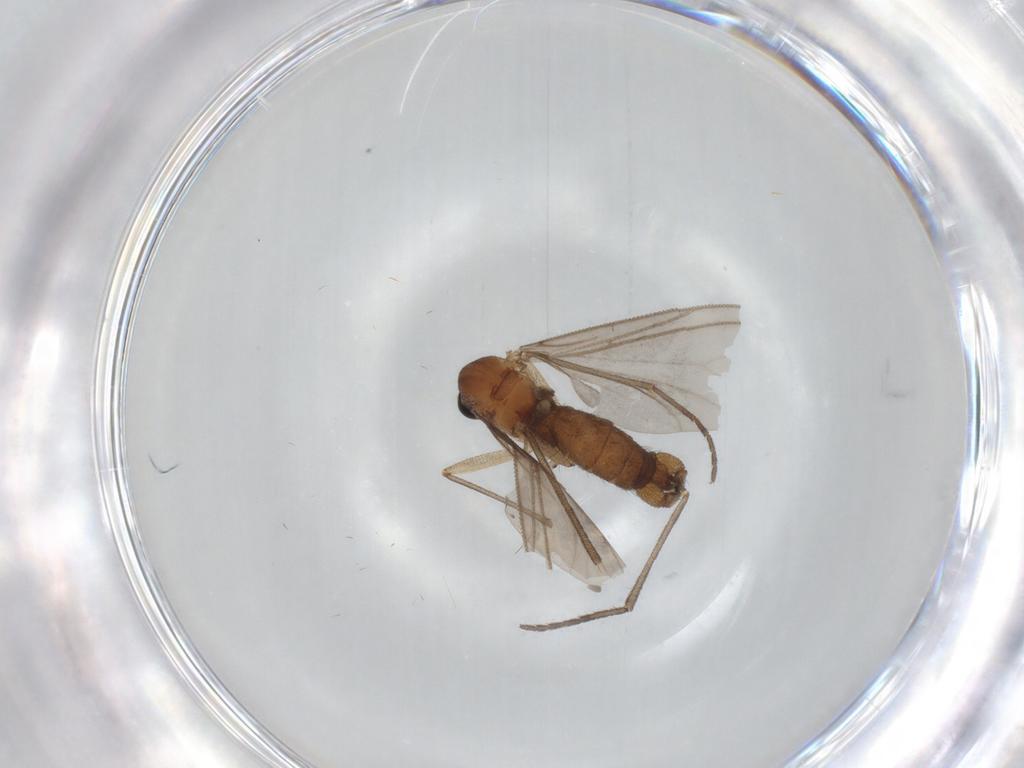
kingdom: Animalia
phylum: Arthropoda
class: Insecta
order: Diptera
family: Sciaridae
